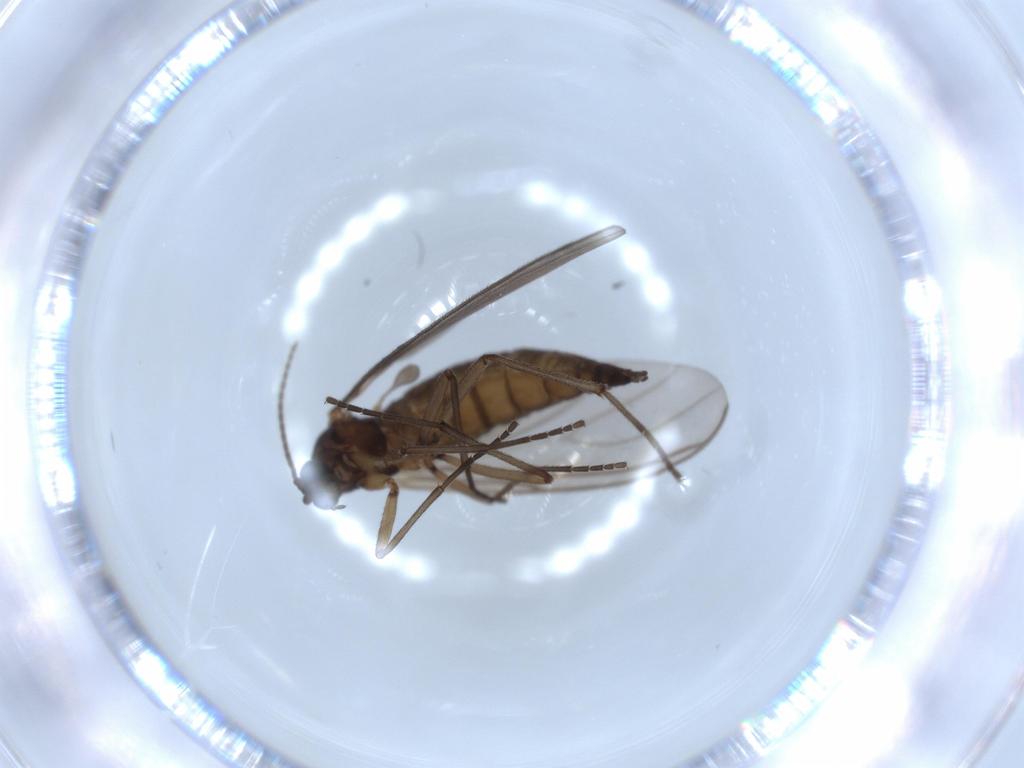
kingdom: Animalia
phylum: Arthropoda
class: Insecta
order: Diptera
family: Sciaridae
